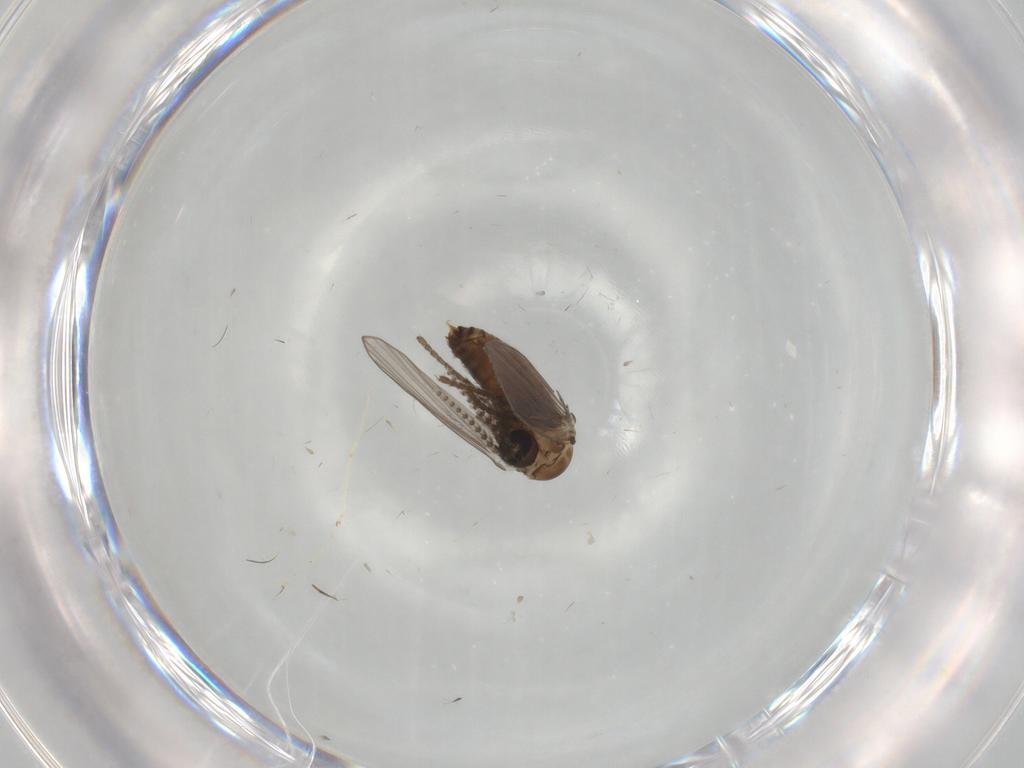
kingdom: Animalia
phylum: Arthropoda
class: Insecta
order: Diptera
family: Psychodidae
